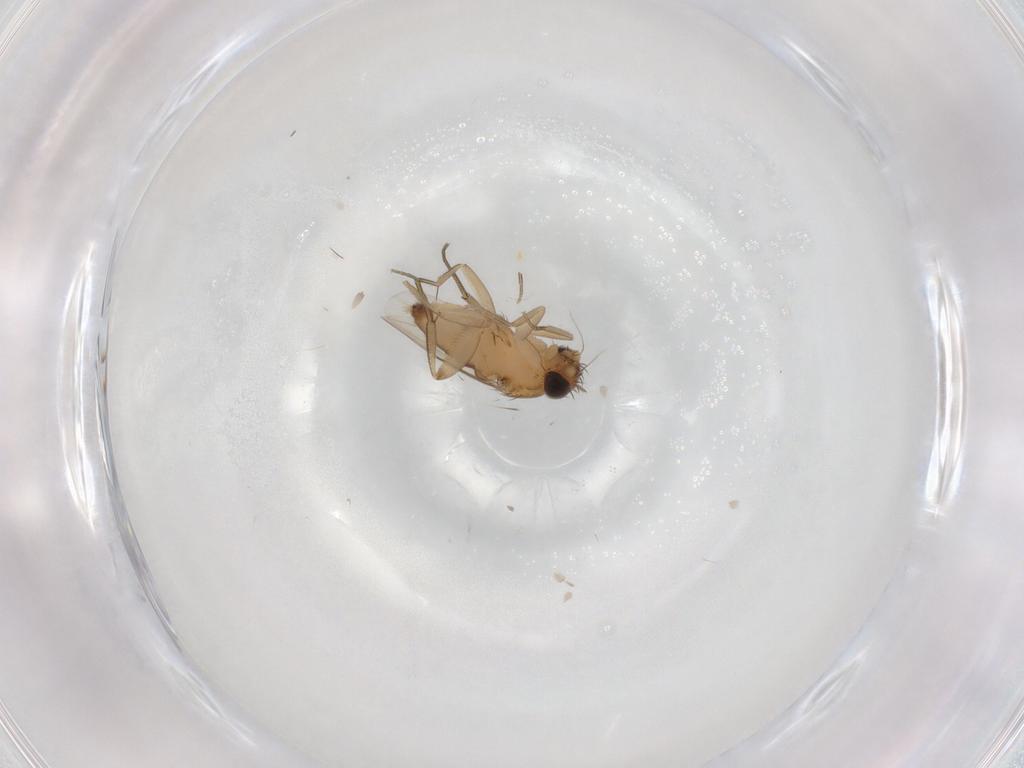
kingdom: Animalia
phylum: Arthropoda
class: Insecta
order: Diptera
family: Phoridae
